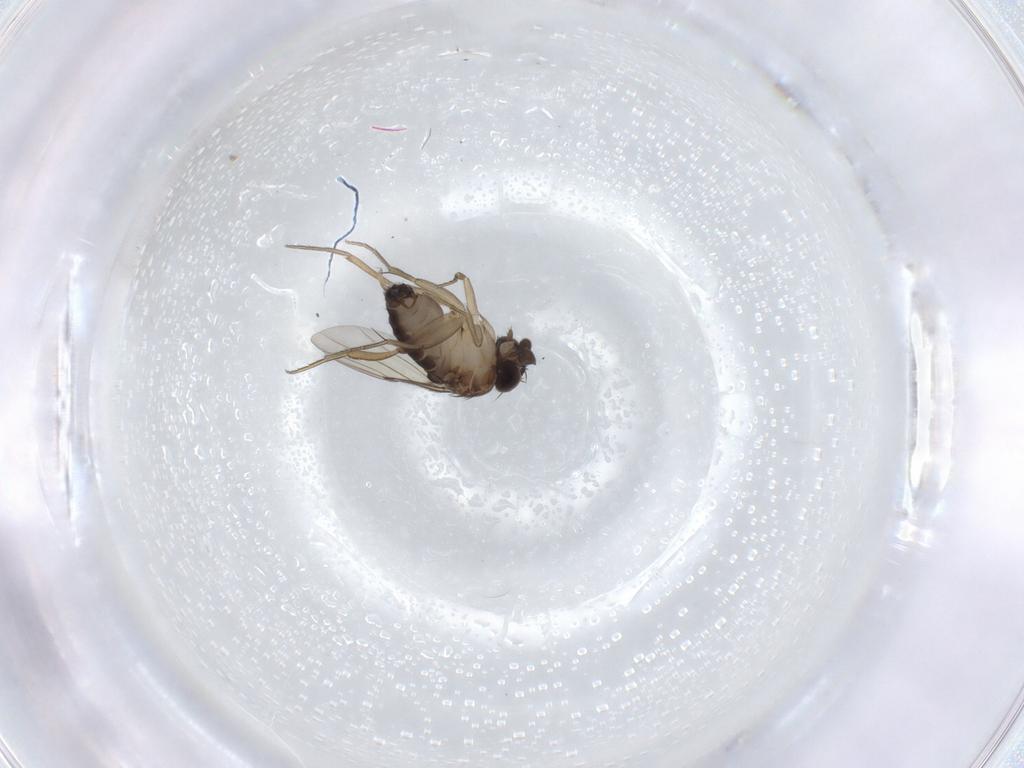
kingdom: Animalia
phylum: Arthropoda
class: Insecta
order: Diptera
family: Phoridae
